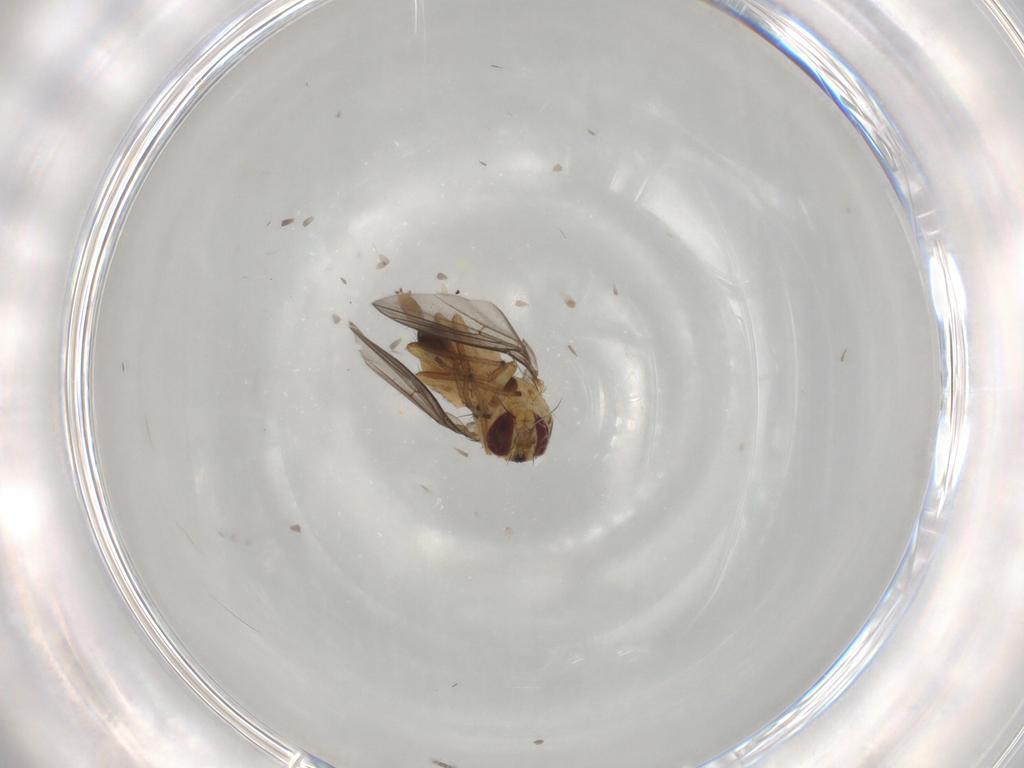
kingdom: Animalia
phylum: Arthropoda
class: Insecta
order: Diptera
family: Agromyzidae
